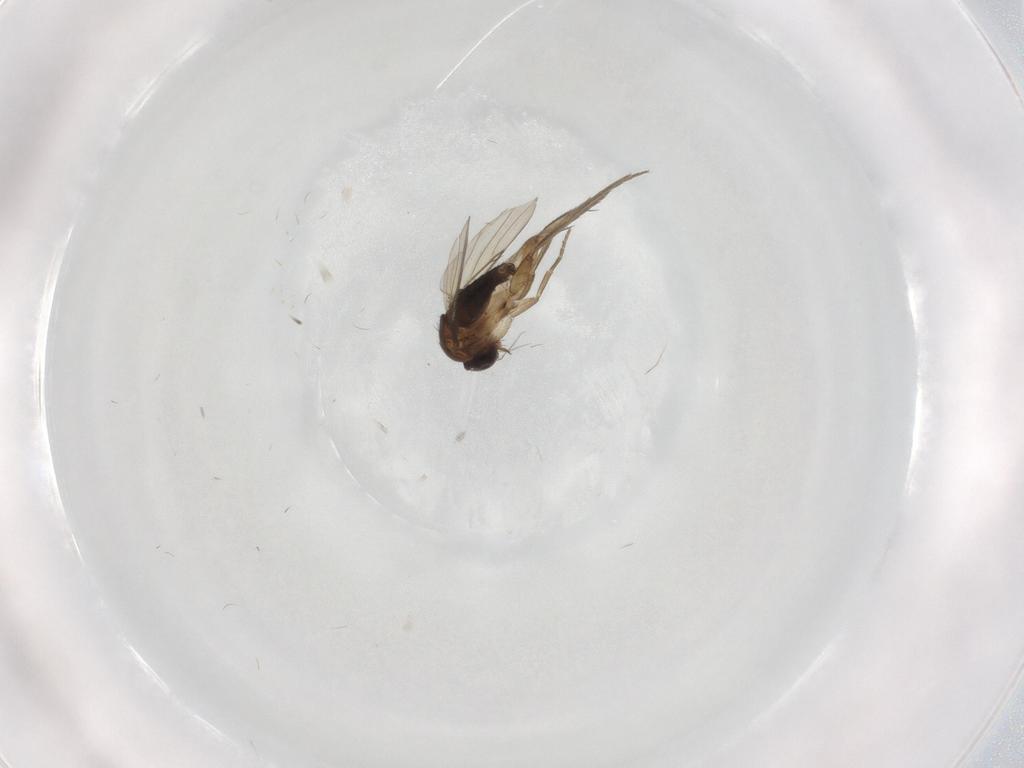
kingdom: Animalia
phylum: Arthropoda
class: Insecta
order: Diptera
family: Phoridae
